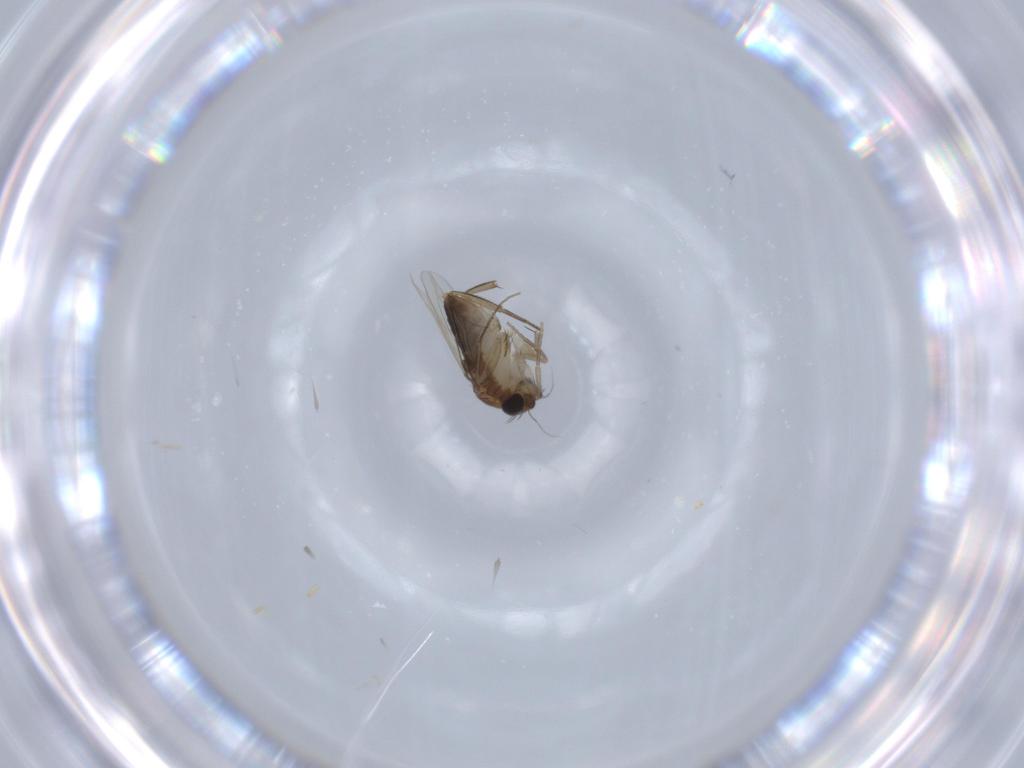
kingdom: Animalia
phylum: Arthropoda
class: Insecta
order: Diptera
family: Phoridae
